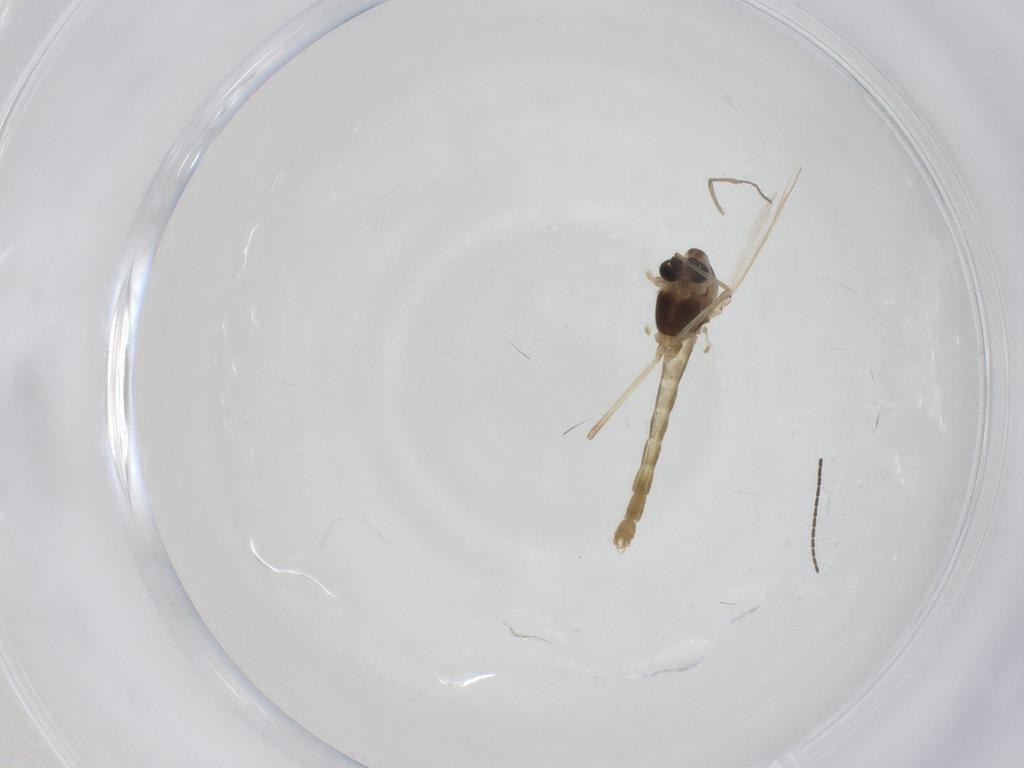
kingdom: Animalia
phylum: Arthropoda
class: Insecta
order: Diptera
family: Chironomidae
